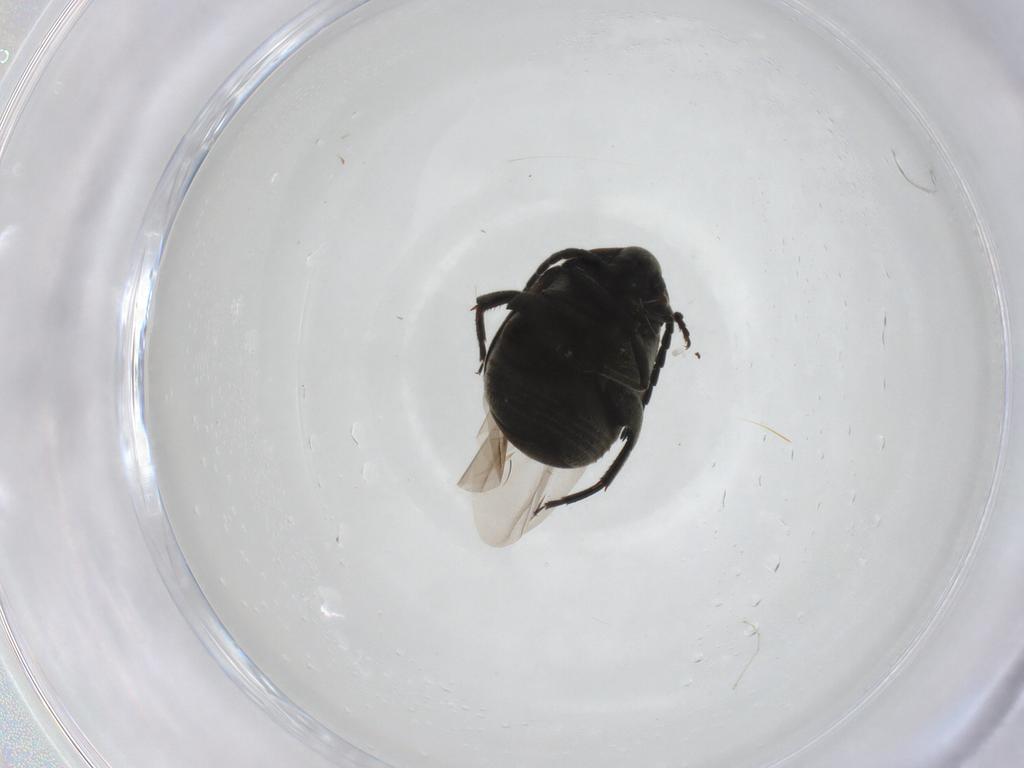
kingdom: Animalia
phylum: Arthropoda
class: Insecta
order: Coleoptera
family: Chrysomelidae
